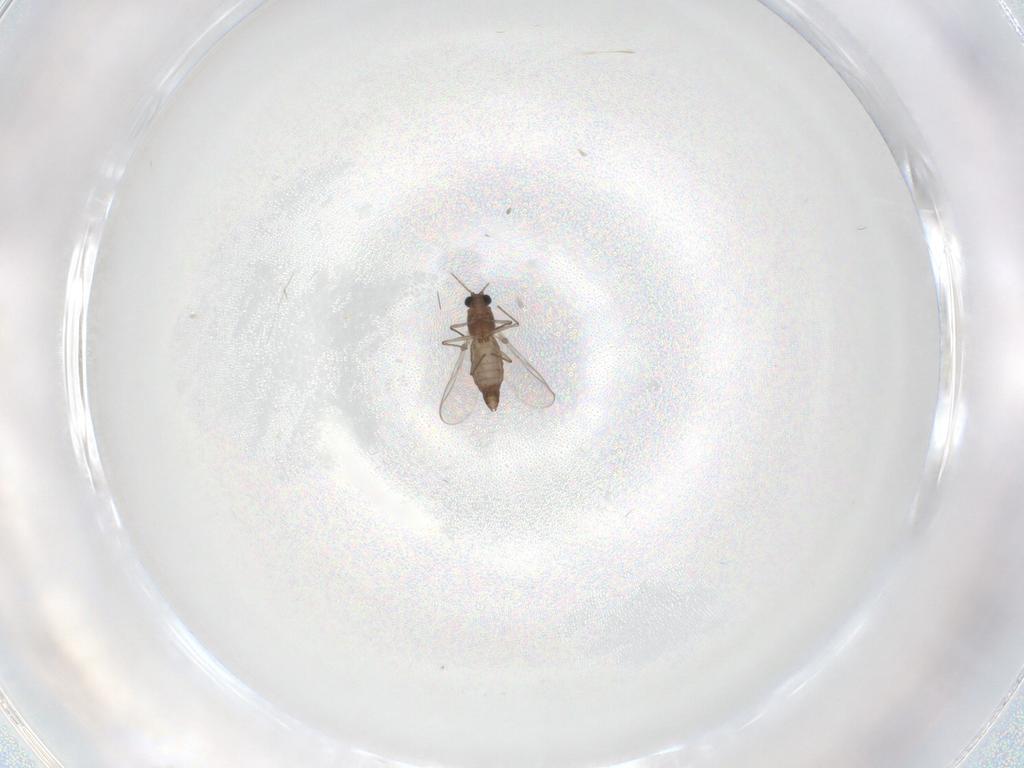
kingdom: Animalia
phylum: Arthropoda
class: Insecta
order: Diptera
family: Chironomidae
